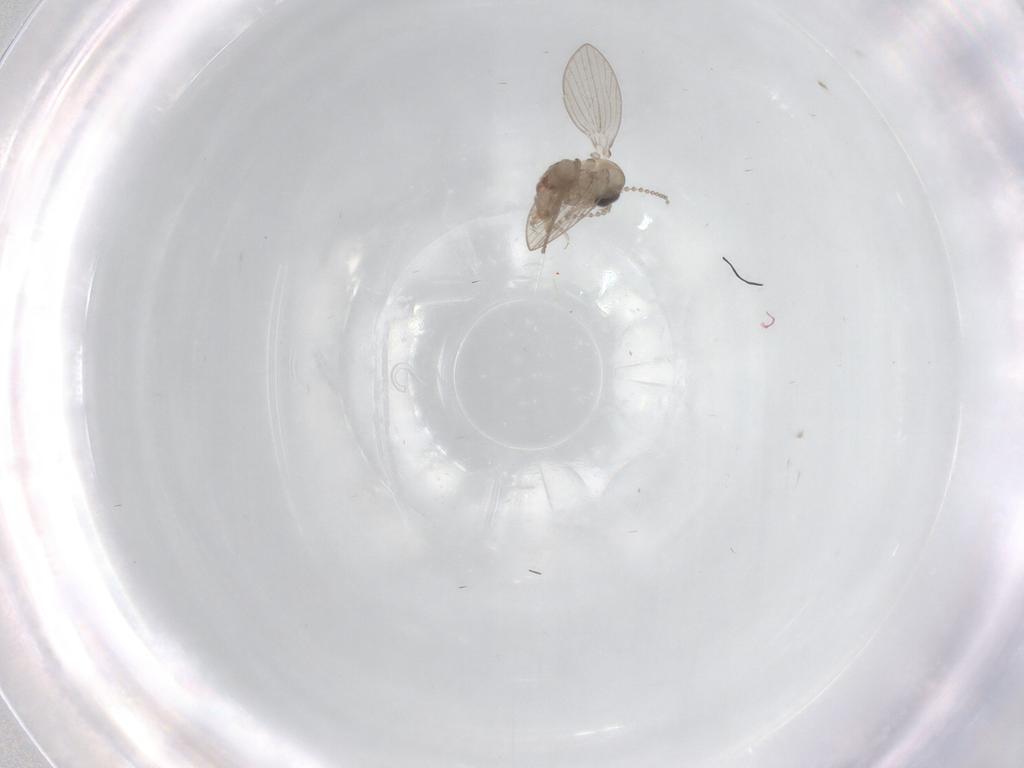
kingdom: Animalia
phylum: Arthropoda
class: Insecta
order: Diptera
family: Psychodidae
